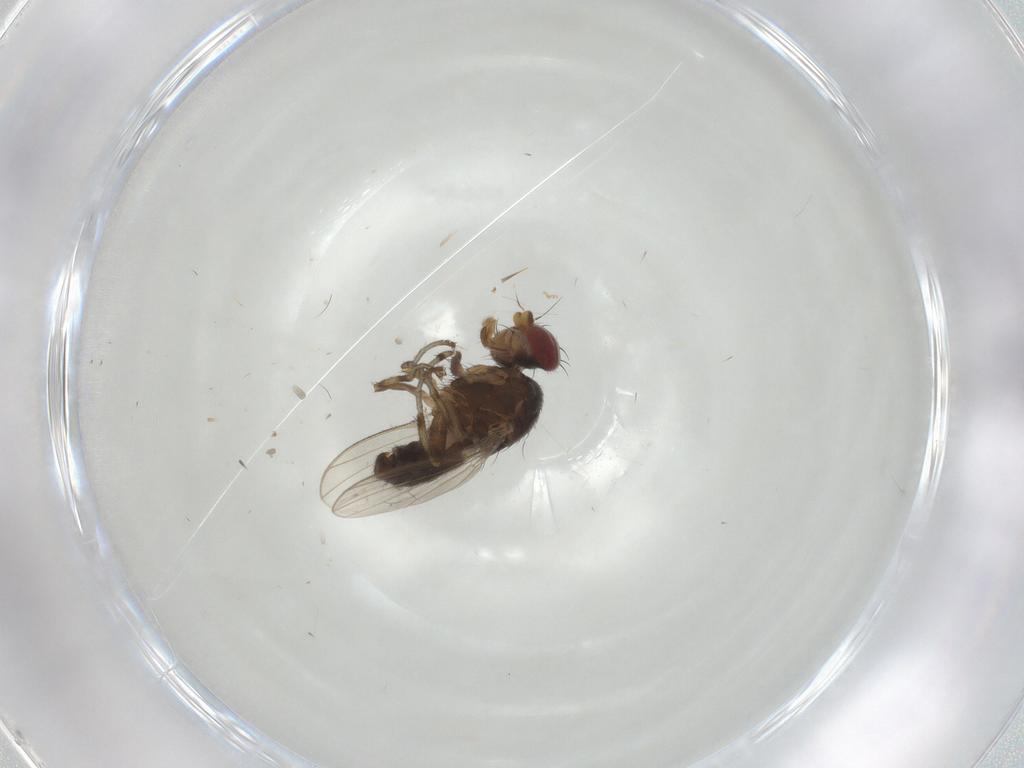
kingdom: Animalia
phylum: Arthropoda
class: Insecta
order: Diptera
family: Heleomyzidae
